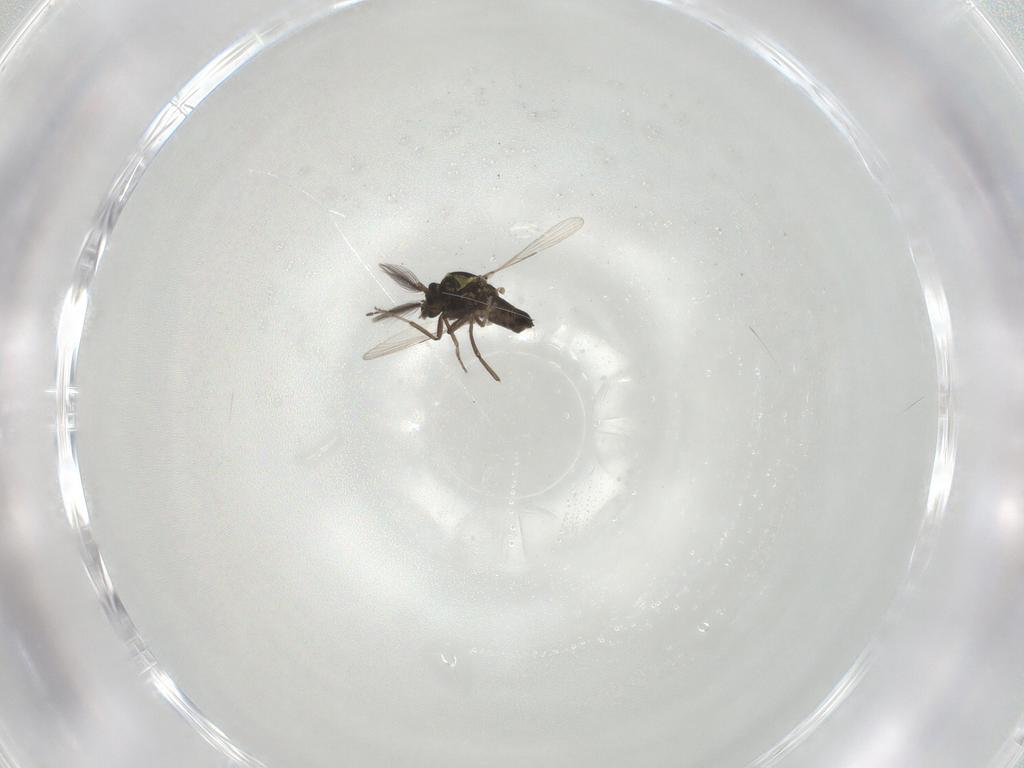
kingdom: Animalia
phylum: Arthropoda
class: Insecta
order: Diptera
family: Ceratopogonidae
